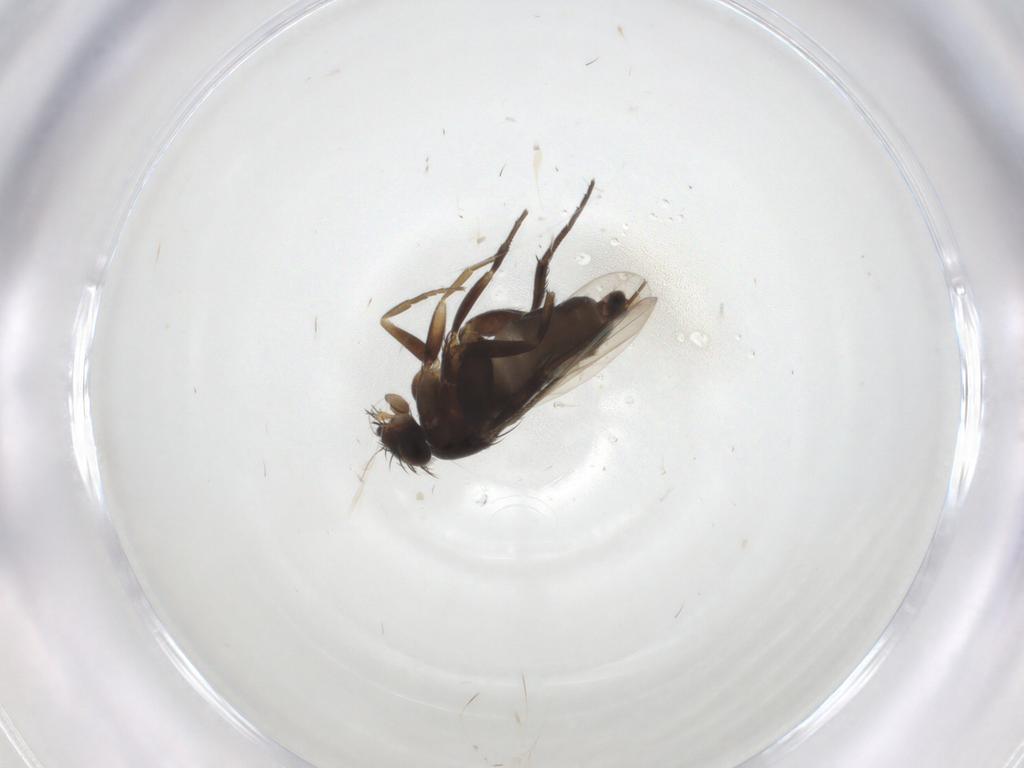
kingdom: Animalia
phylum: Arthropoda
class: Insecta
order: Diptera
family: Phoridae
